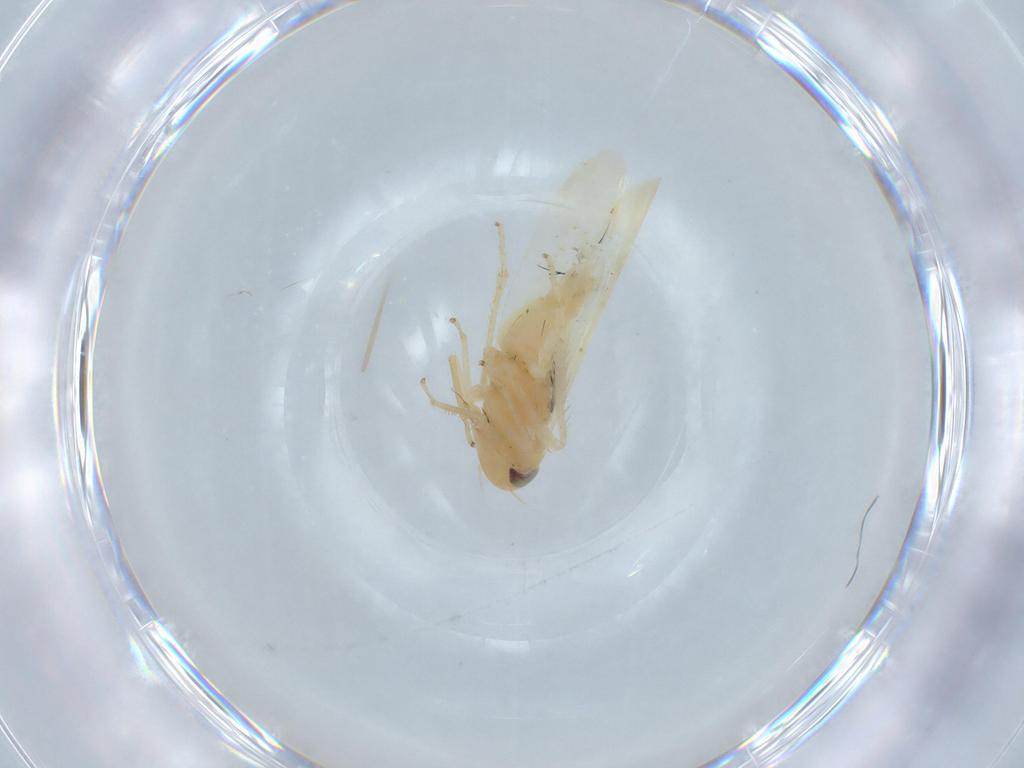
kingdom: Animalia
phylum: Arthropoda
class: Insecta
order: Hemiptera
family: Cicadellidae
